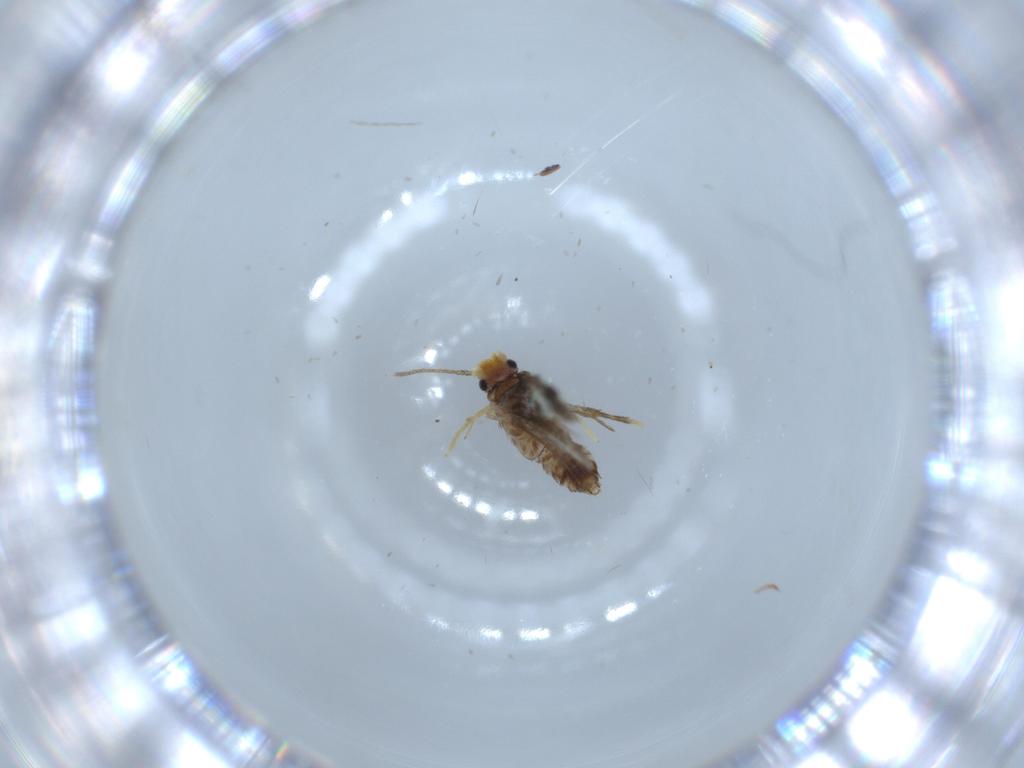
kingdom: Animalia
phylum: Arthropoda
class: Insecta
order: Lepidoptera
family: Nepticulidae
